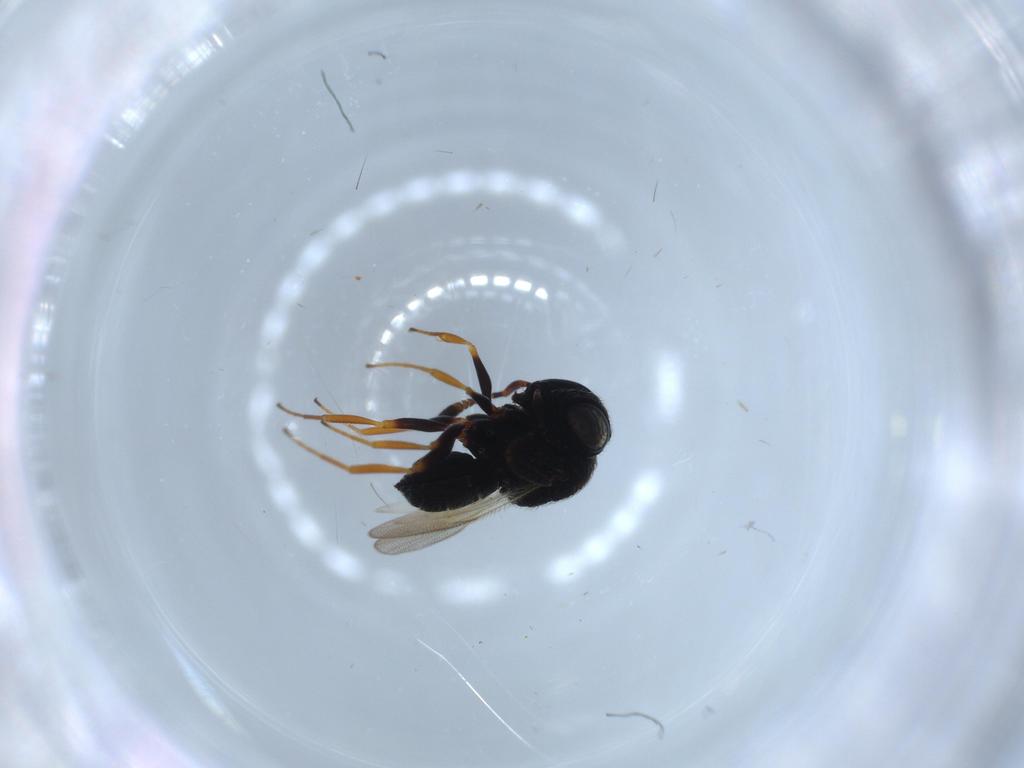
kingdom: Animalia
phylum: Arthropoda
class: Insecta
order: Hymenoptera
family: Scelionidae
